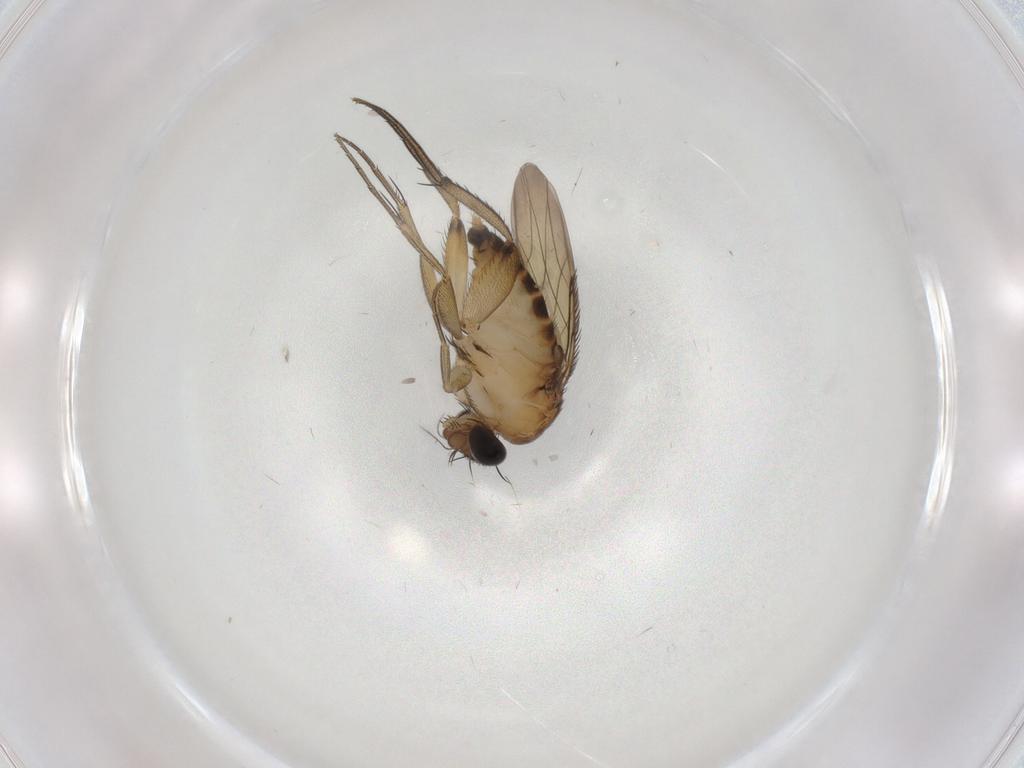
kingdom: Animalia
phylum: Arthropoda
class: Insecta
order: Diptera
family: Phoridae
